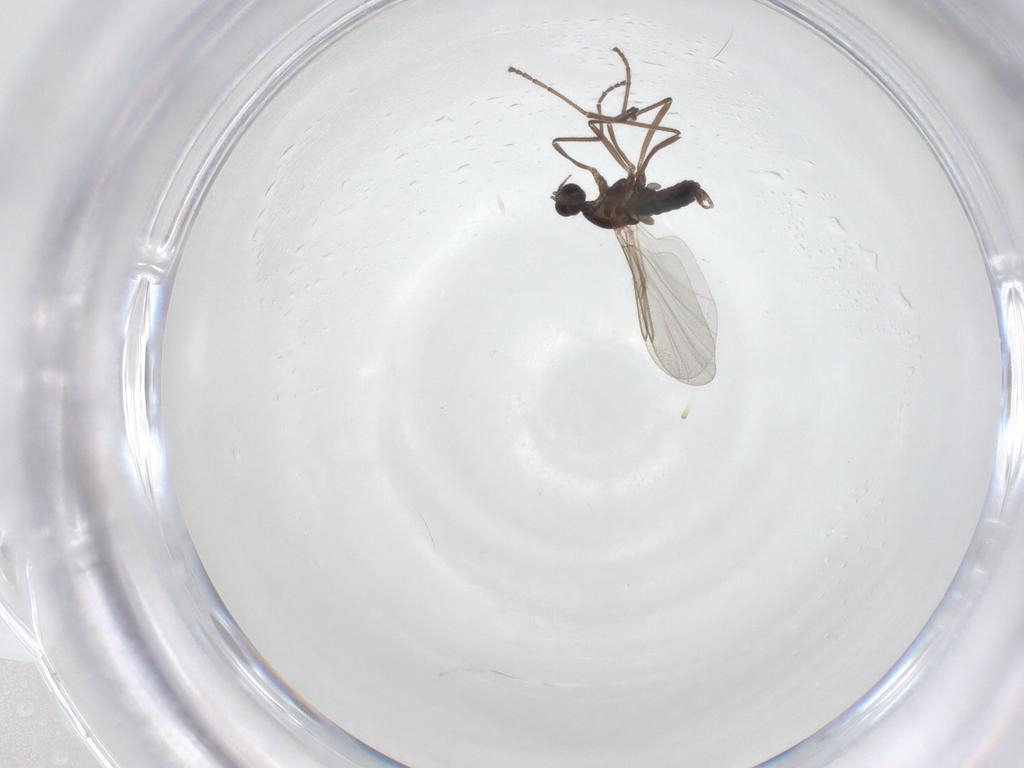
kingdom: Animalia
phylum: Arthropoda
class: Insecta
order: Diptera
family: Cecidomyiidae
